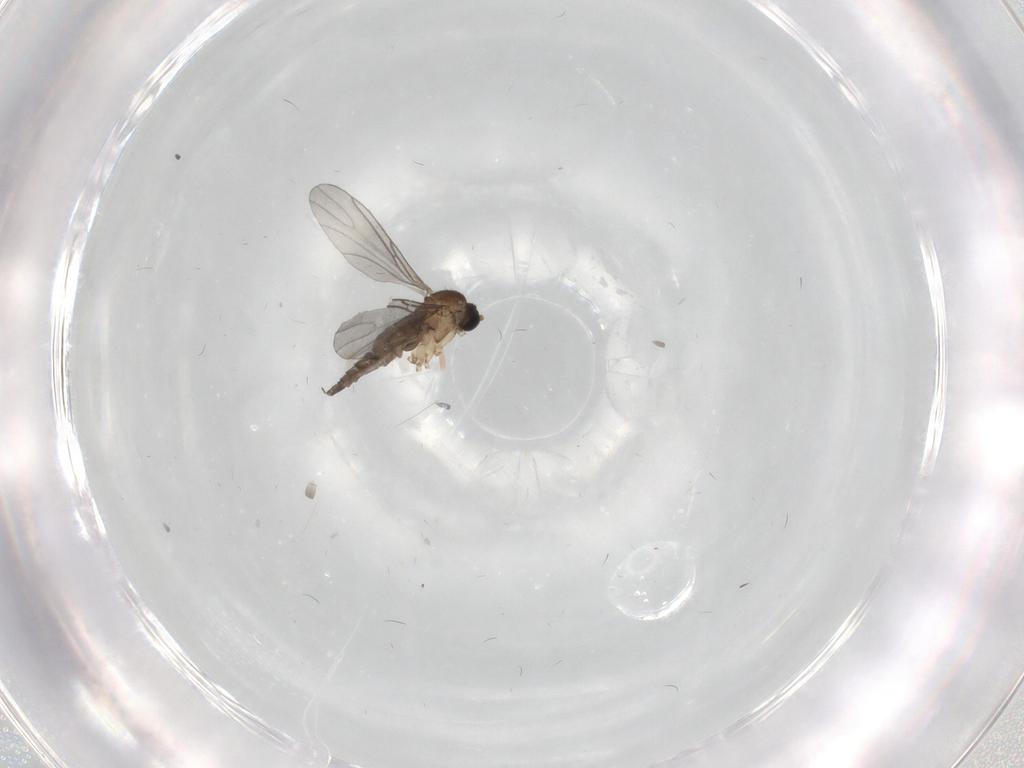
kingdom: Animalia
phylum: Arthropoda
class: Insecta
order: Diptera
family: Sciaridae
